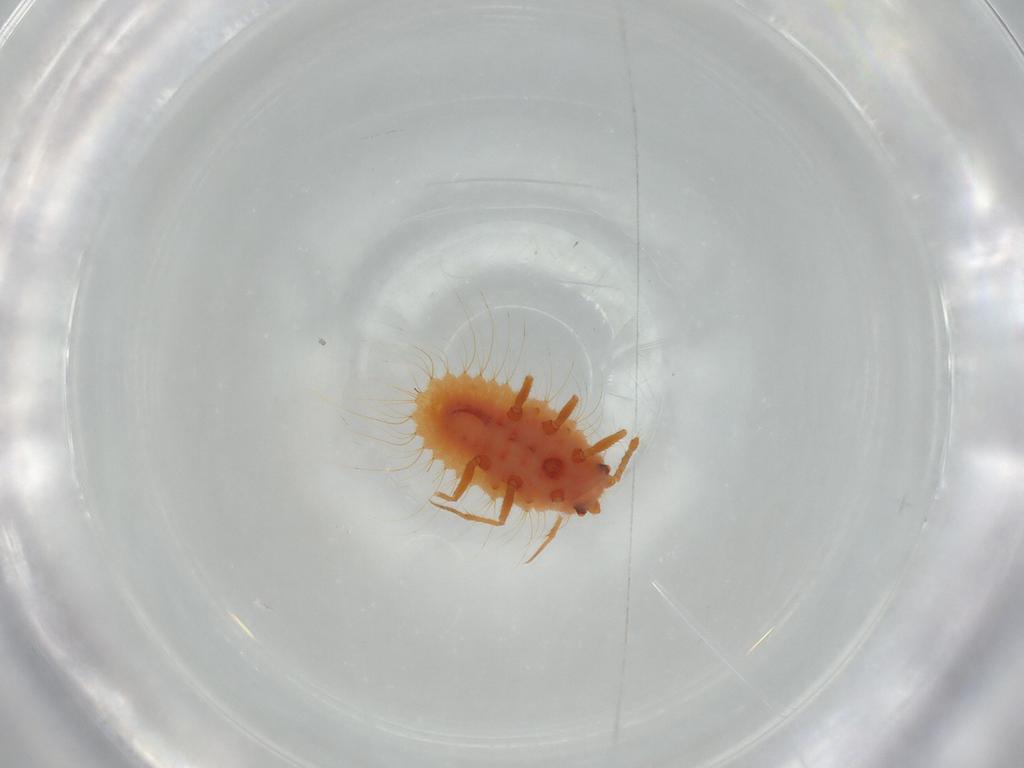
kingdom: Animalia
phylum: Arthropoda
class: Insecta
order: Hemiptera
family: Coccoidea_incertae_sedis
